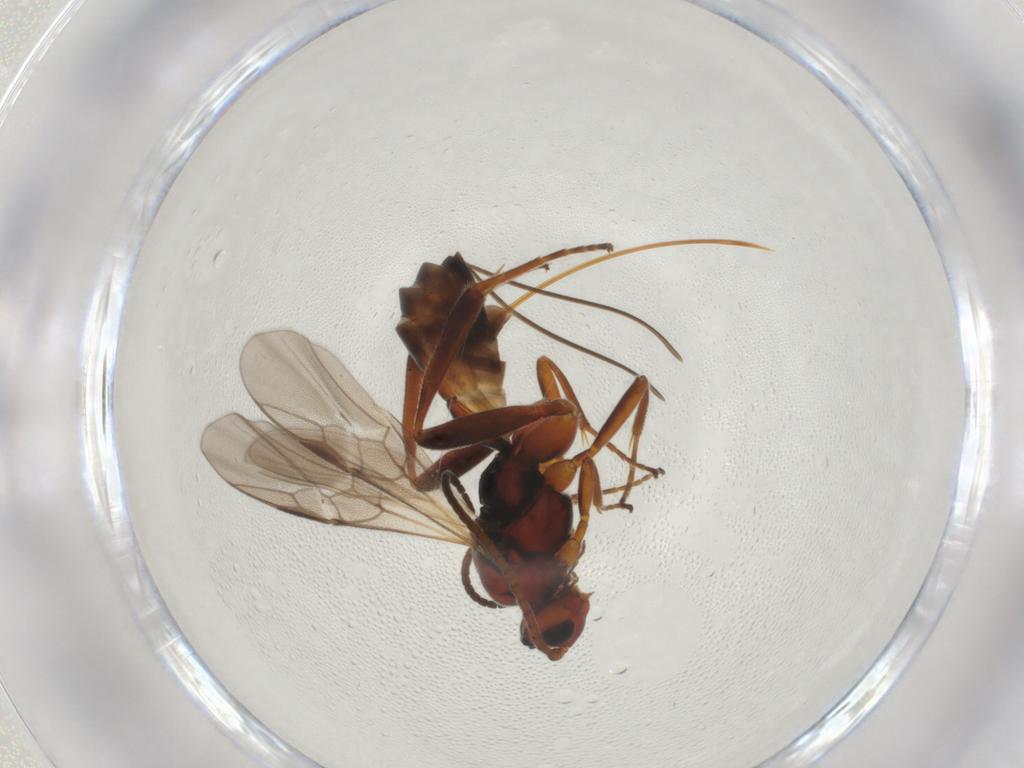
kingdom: Animalia
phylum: Arthropoda
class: Insecta
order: Hymenoptera
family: Braconidae
